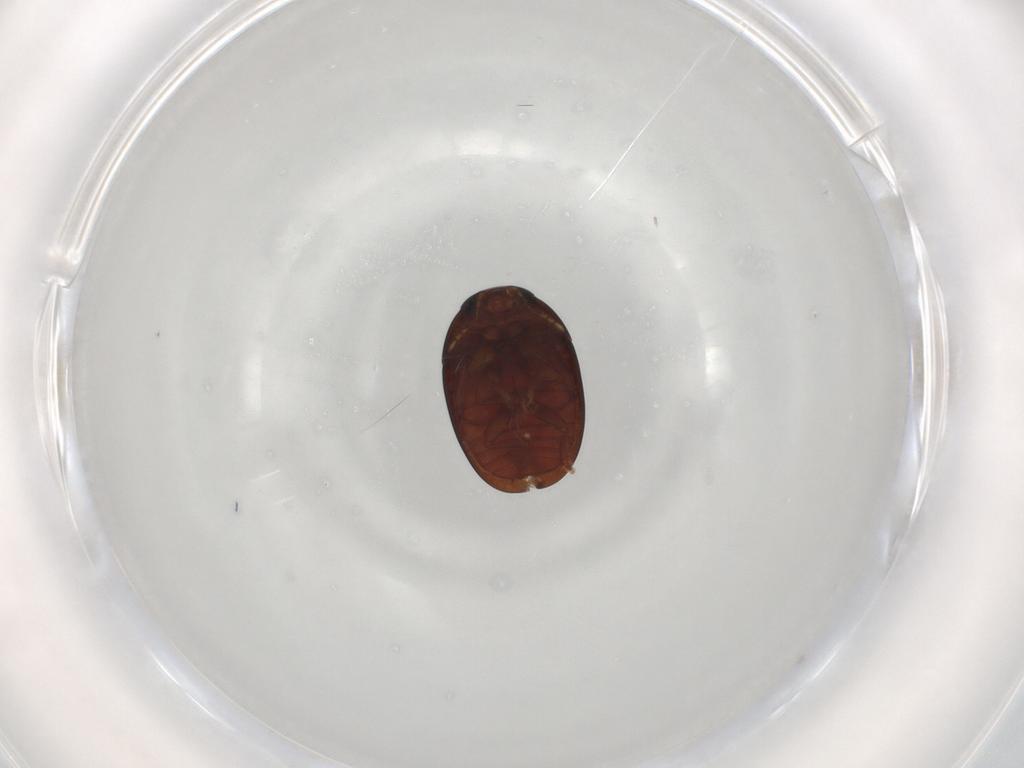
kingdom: Animalia
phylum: Arthropoda
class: Insecta
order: Coleoptera
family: Phalacridae
